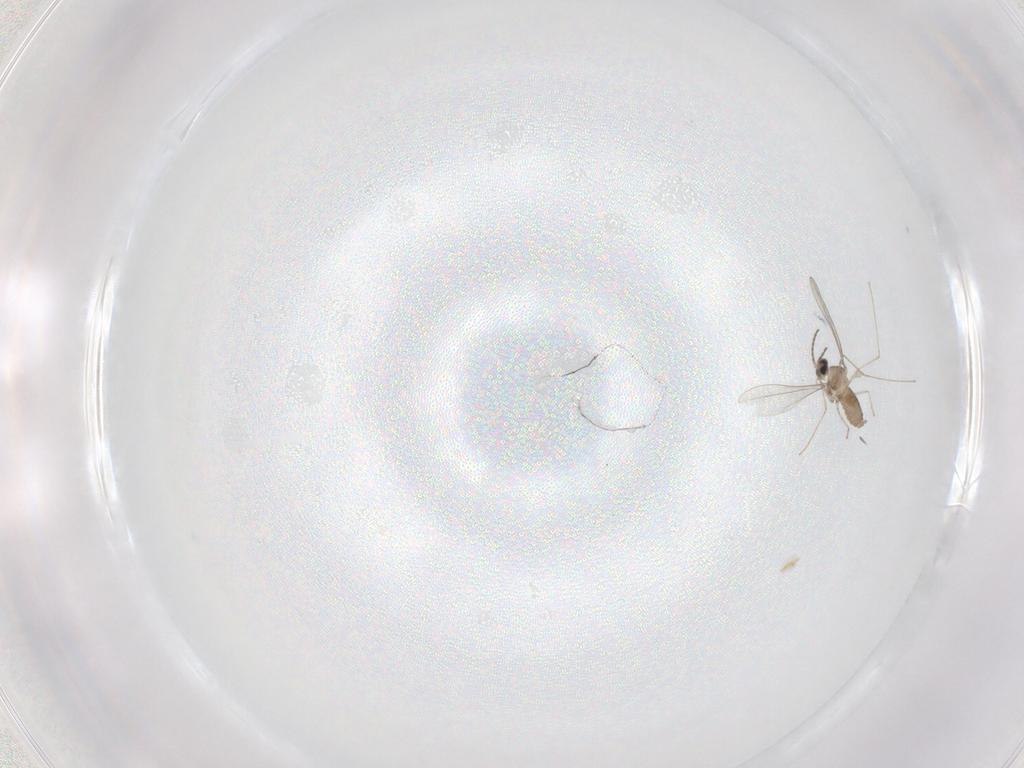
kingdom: Animalia
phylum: Arthropoda
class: Insecta
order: Diptera
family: Cecidomyiidae
